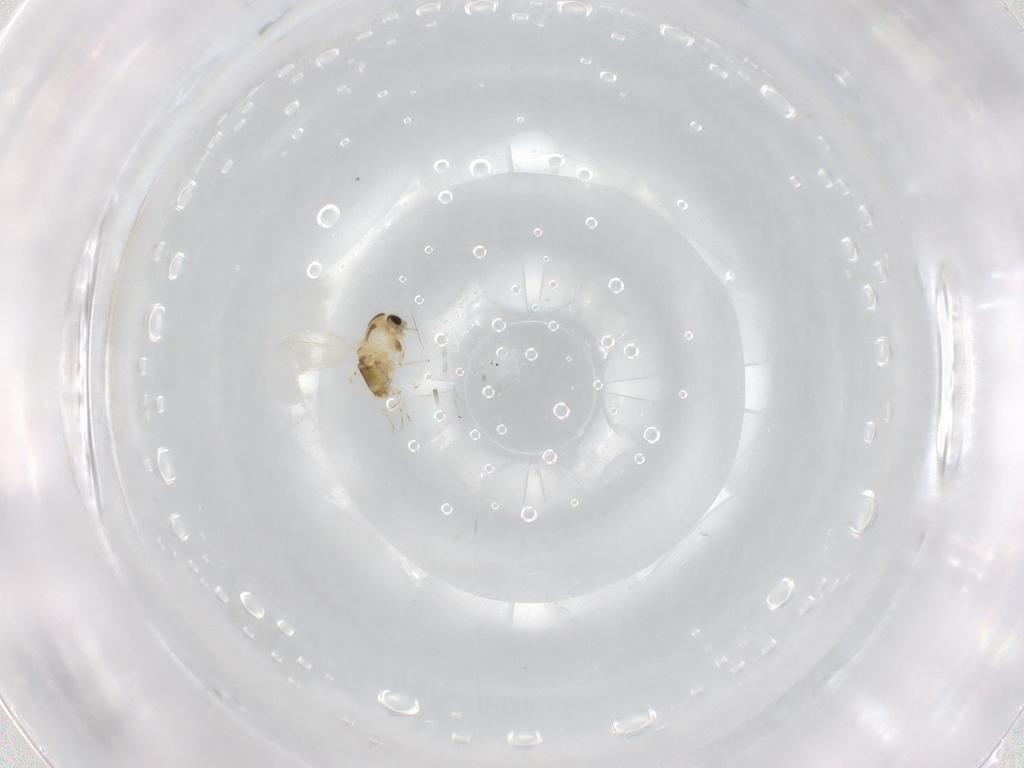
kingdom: Animalia
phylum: Arthropoda
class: Insecta
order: Diptera
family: Chironomidae
